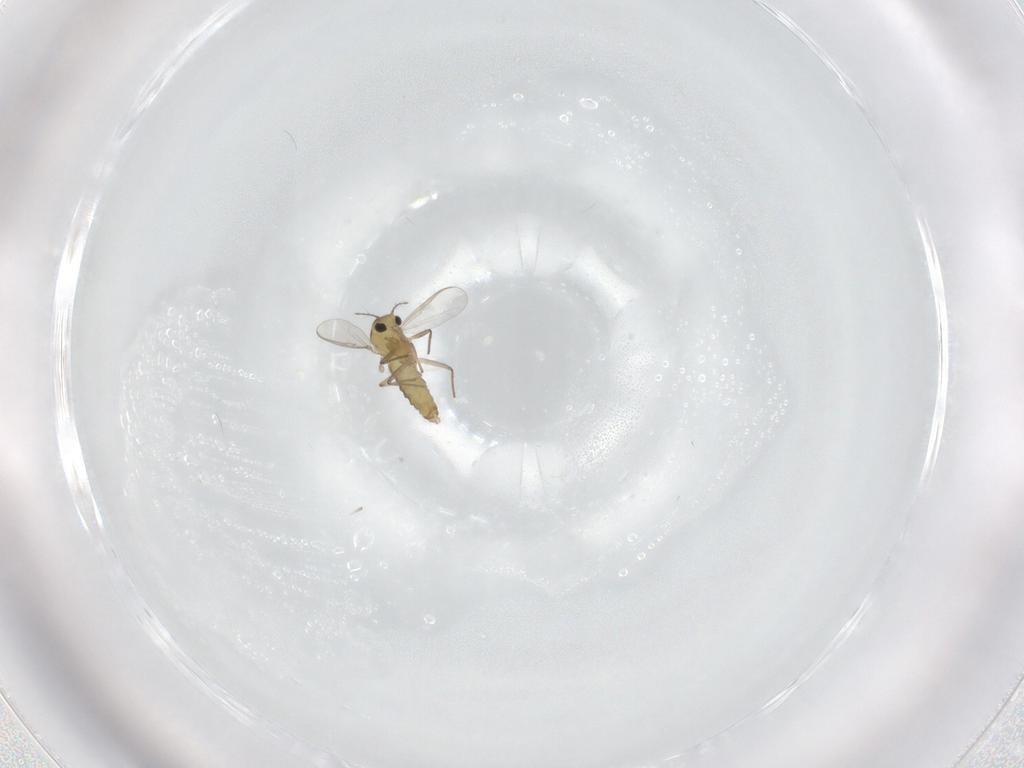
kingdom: Animalia
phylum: Arthropoda
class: Insecta
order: Diptera
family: Chironomidae
